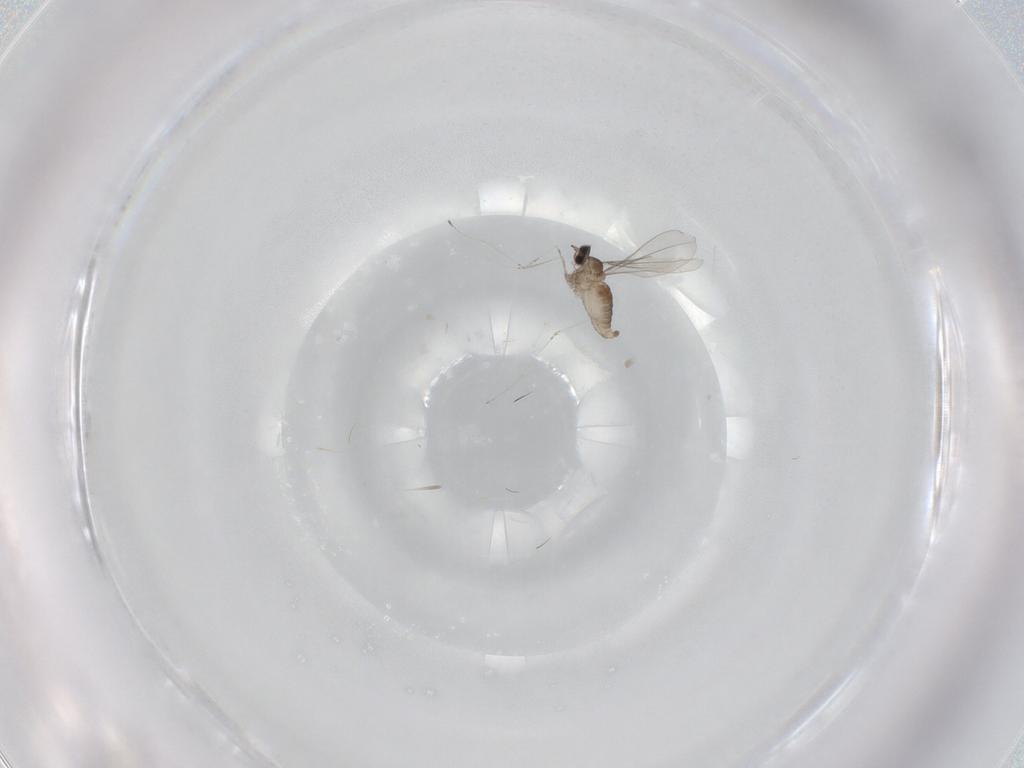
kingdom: Animalia
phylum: Arthropoda
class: Insecta
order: Diptera
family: Cecidomyiidae
